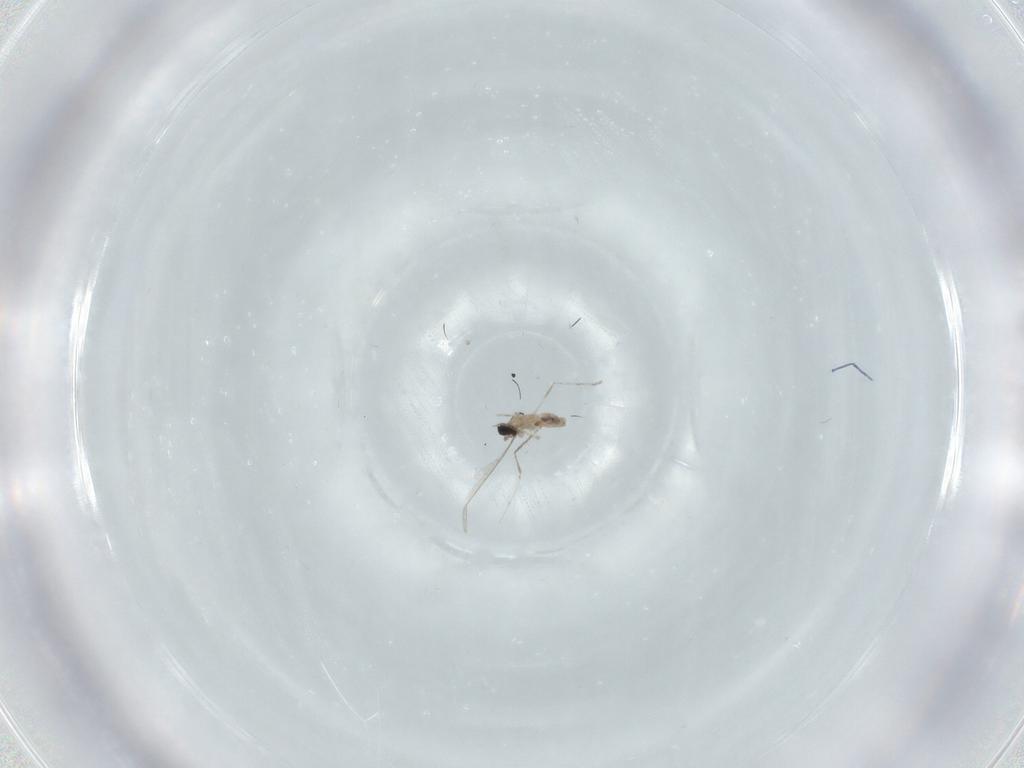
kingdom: Animalia
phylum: Arthropoda
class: Insecta
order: Diptera
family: Cecidomyiidae
